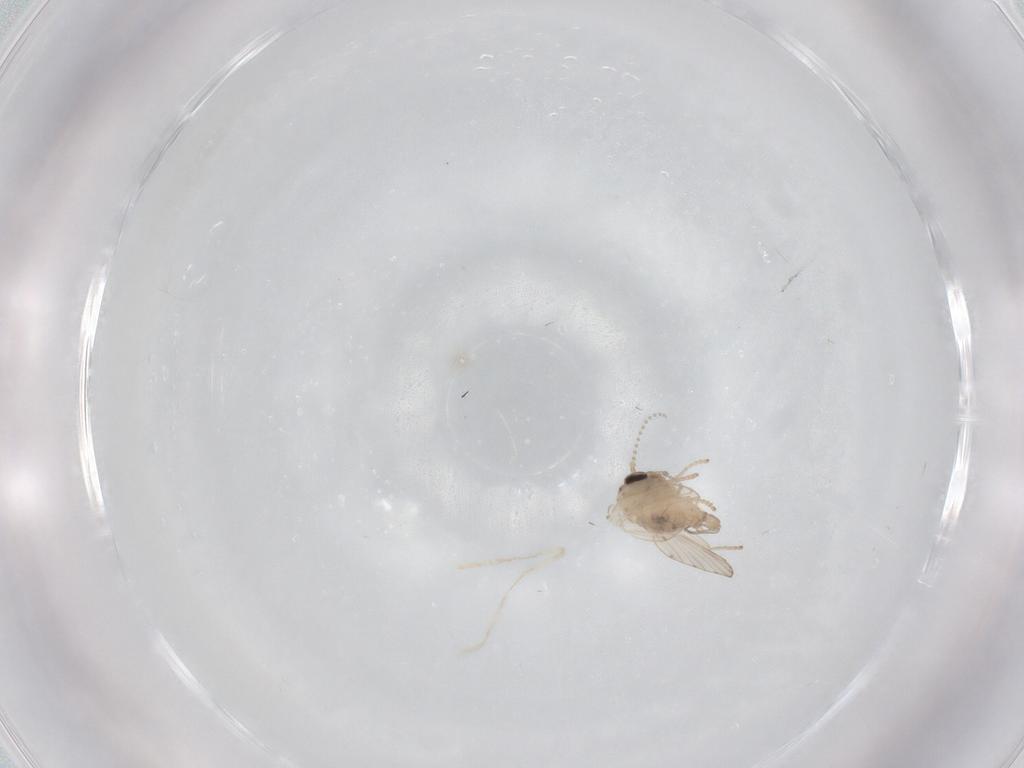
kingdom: Animalia
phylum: Arthropoda
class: Insecta
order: Diptera
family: Psychodidae
